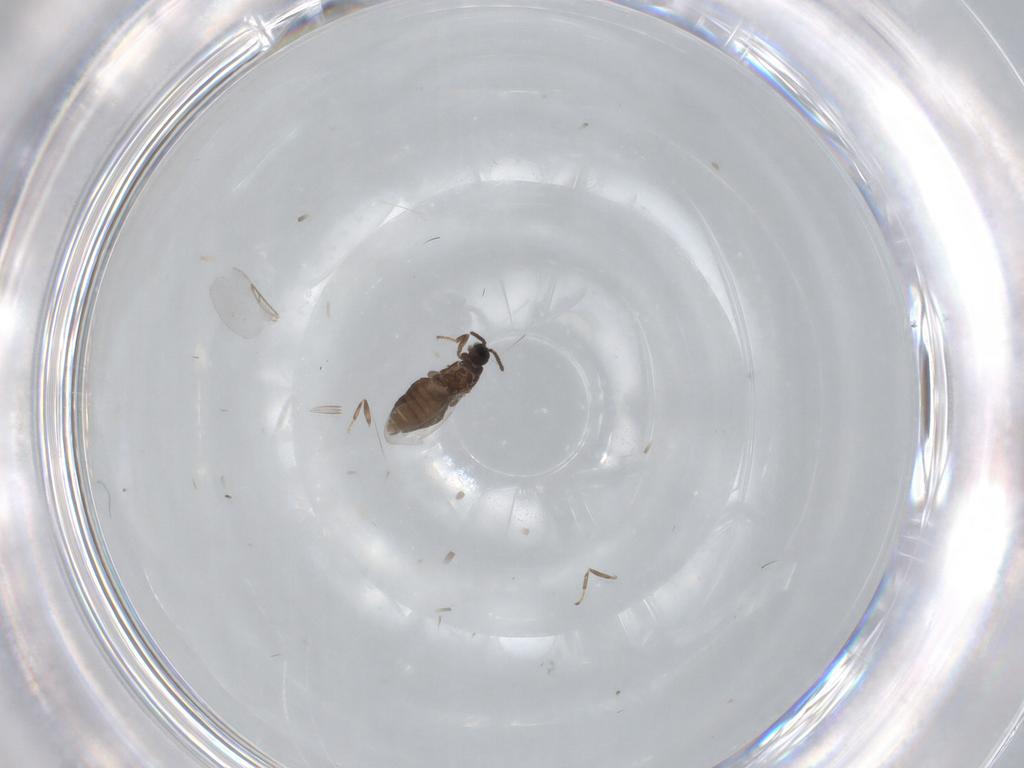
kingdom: Animalia
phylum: Arthropoda
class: Insecta
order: Diptera
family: Scatopsidae
